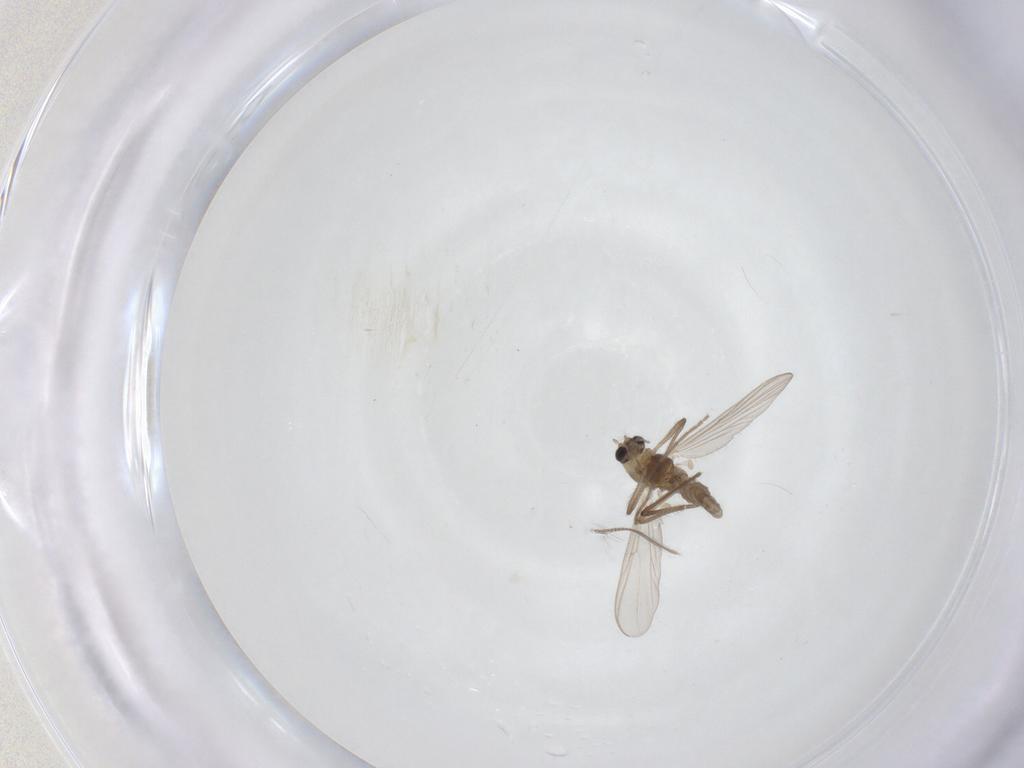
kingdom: Animalia
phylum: Arthropoda
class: Insecta
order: Diptera
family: Chironomidae
